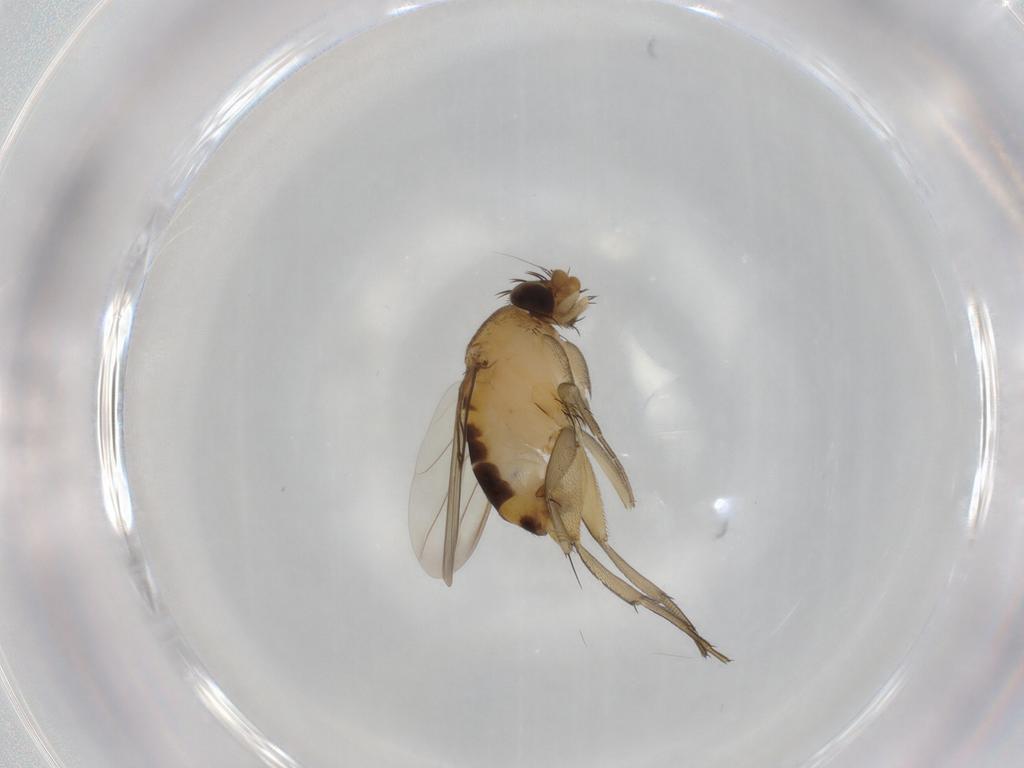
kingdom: Animalia
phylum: Arthropoda
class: Insecta
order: Diptera
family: Phoridae
